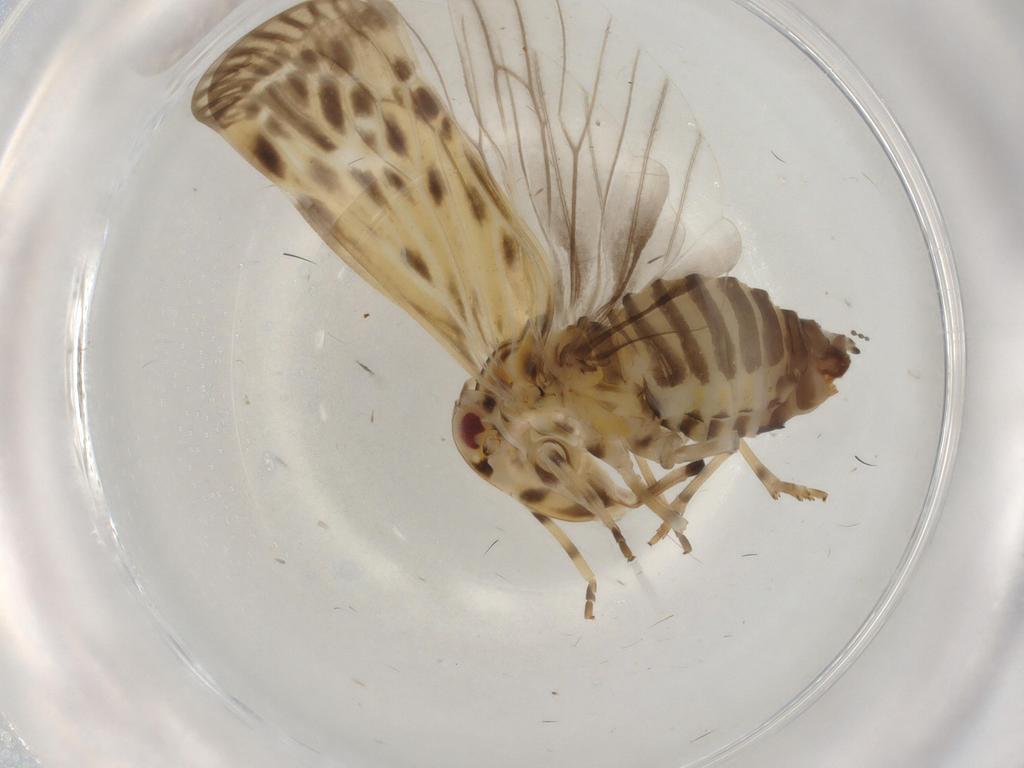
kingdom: Animalia
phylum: Arthropoda
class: Insecta
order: Hemiptera
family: Derbidae
